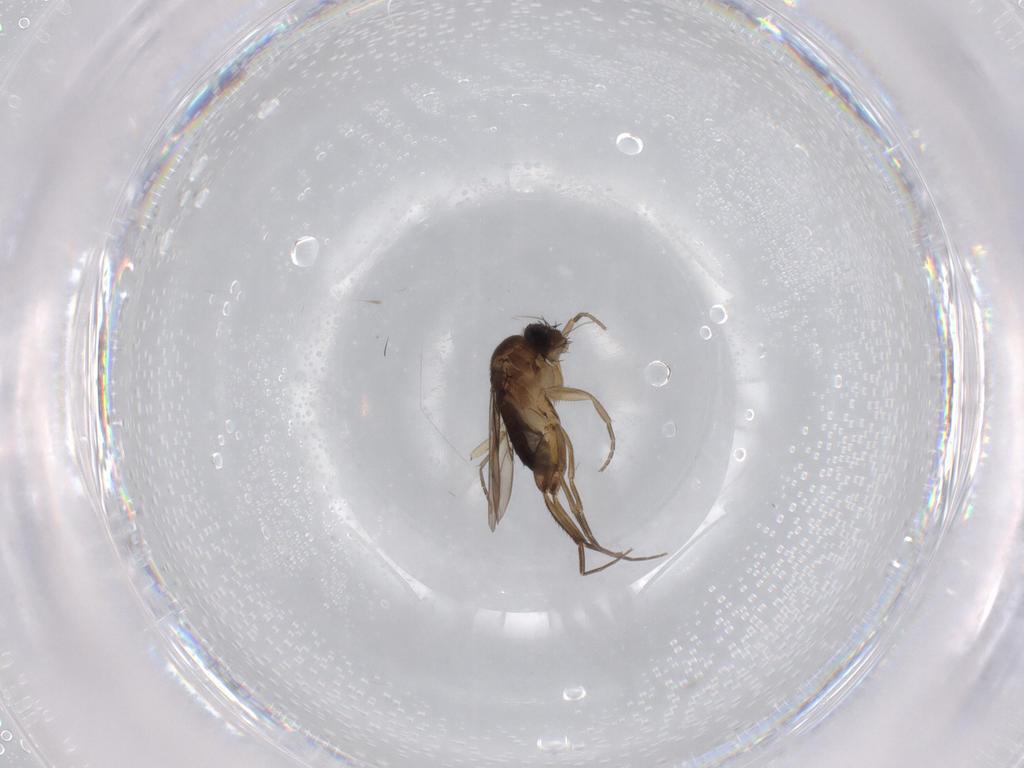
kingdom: Animalia
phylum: Arthropoda
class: Insecta
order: Diptera
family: Phoridae
